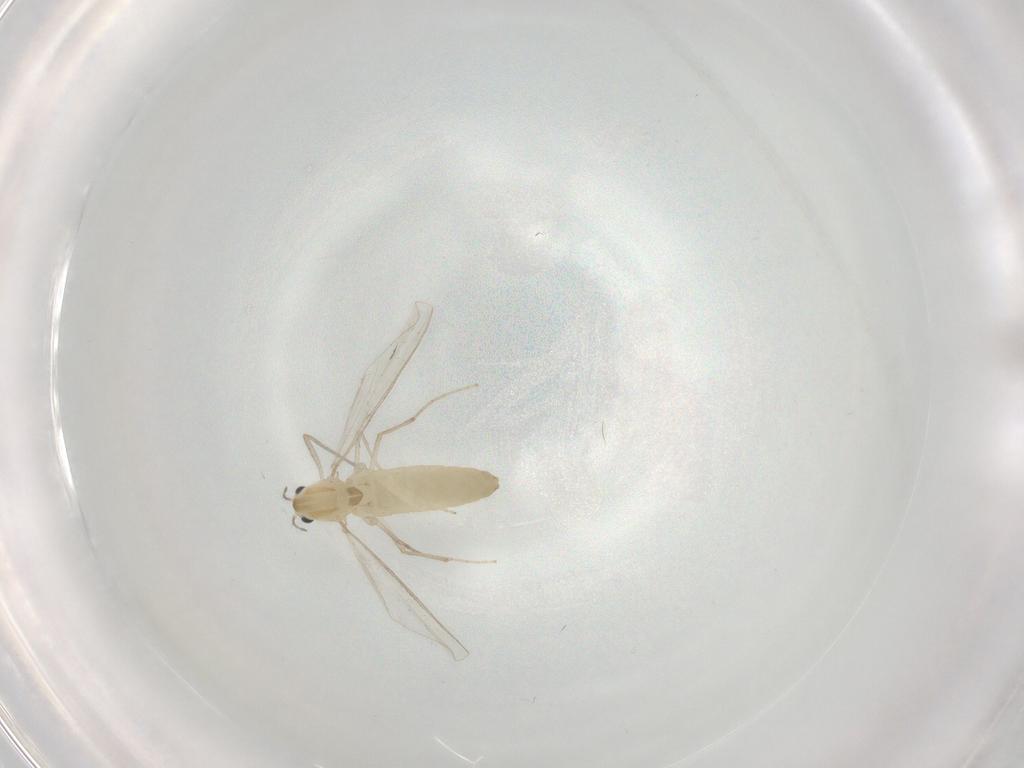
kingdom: Animalia
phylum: Arthropoda
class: Insecta
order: Diptera
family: Chironomidae
